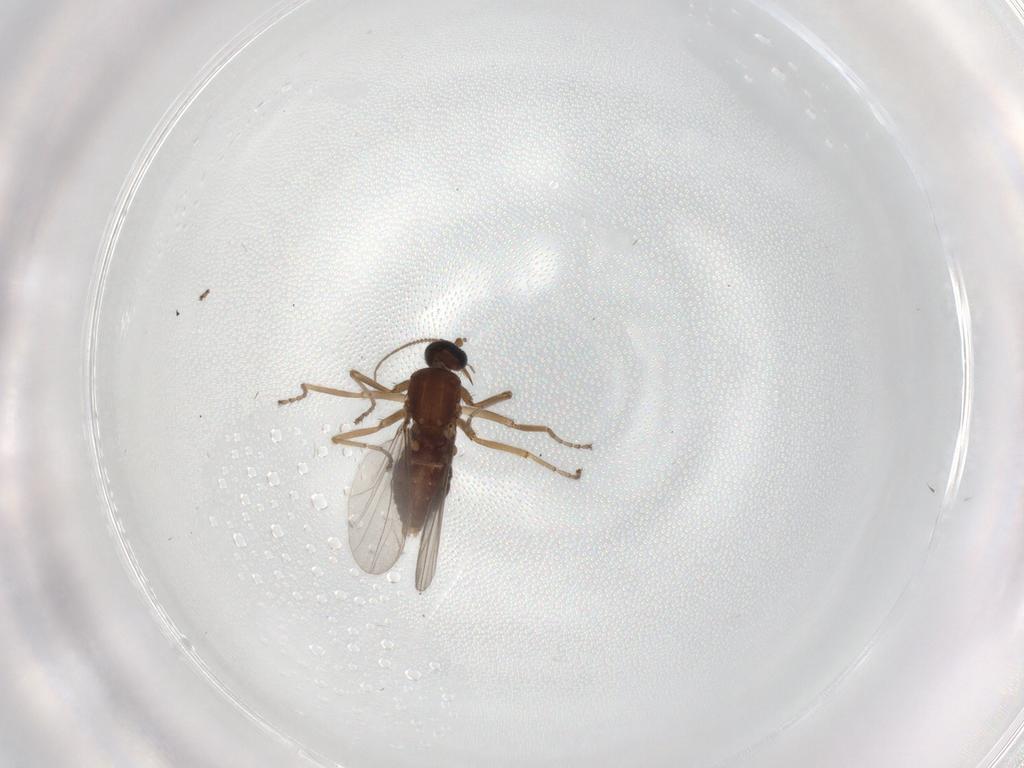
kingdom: Animalia
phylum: Arthropoda
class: Insecta
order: Diptera
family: Ceratopogonidae
